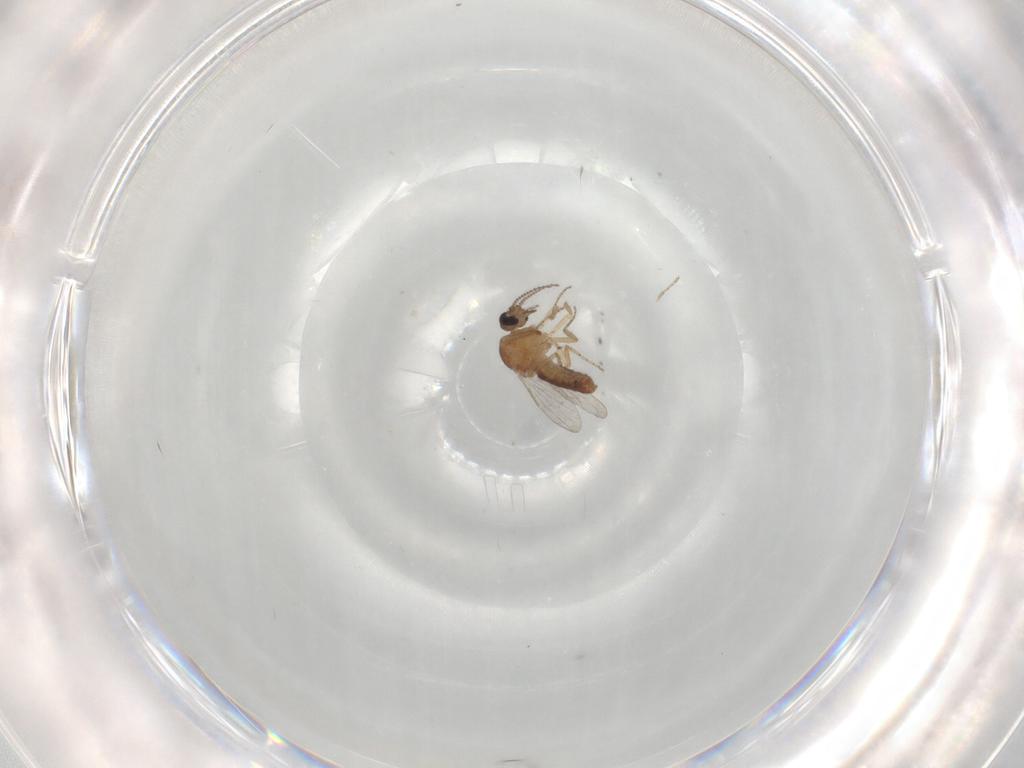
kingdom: Animalia
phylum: Arthropoda
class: Insecta
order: Diptera
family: Ceratopogonidae
